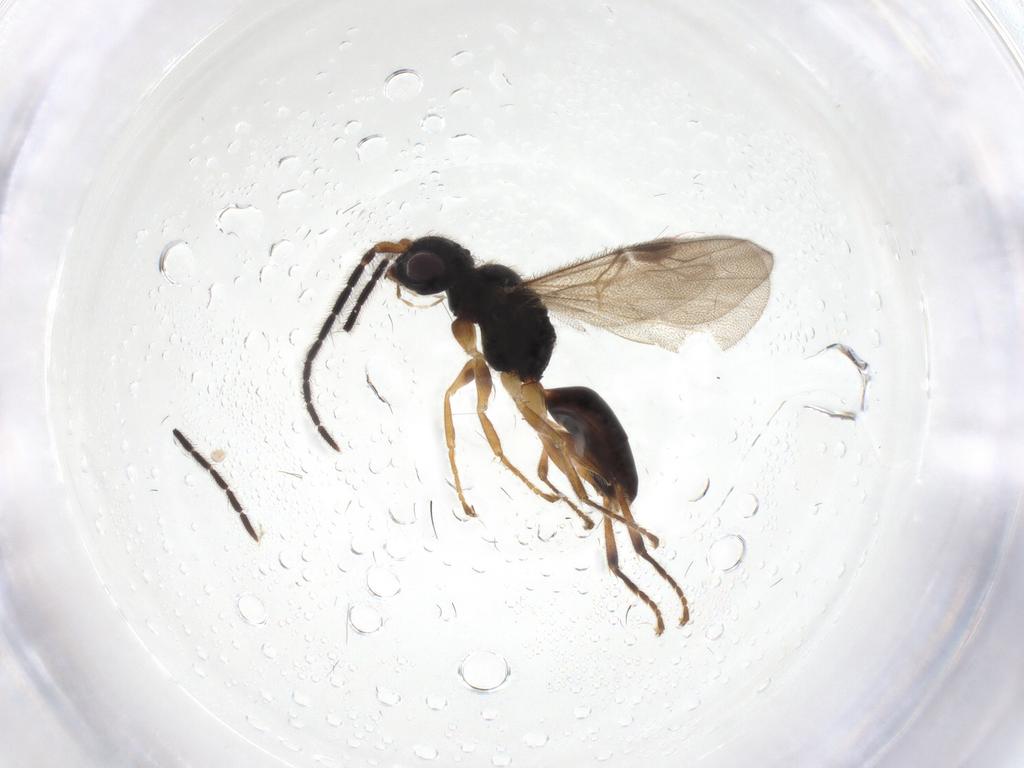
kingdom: Animalia
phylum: Arthropoda
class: Insecta
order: Hymenoptera
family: Dryinidae
